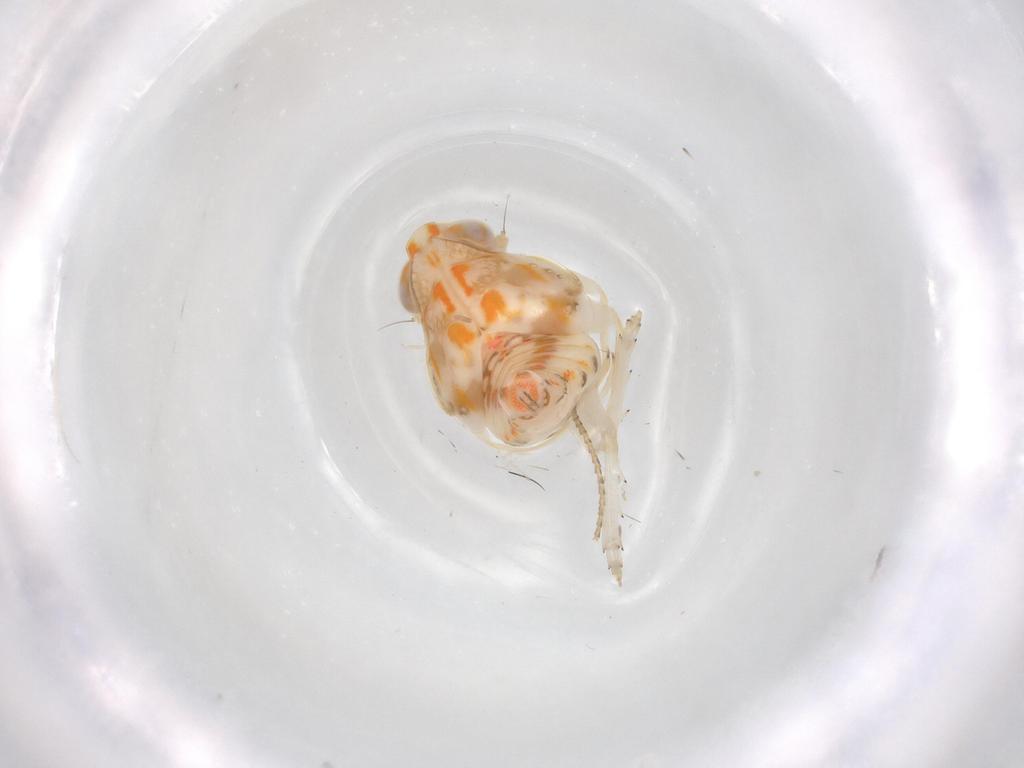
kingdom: Animalia
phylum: Arthropoda
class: Insecta
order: Hemiptera
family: Nogodinidae
